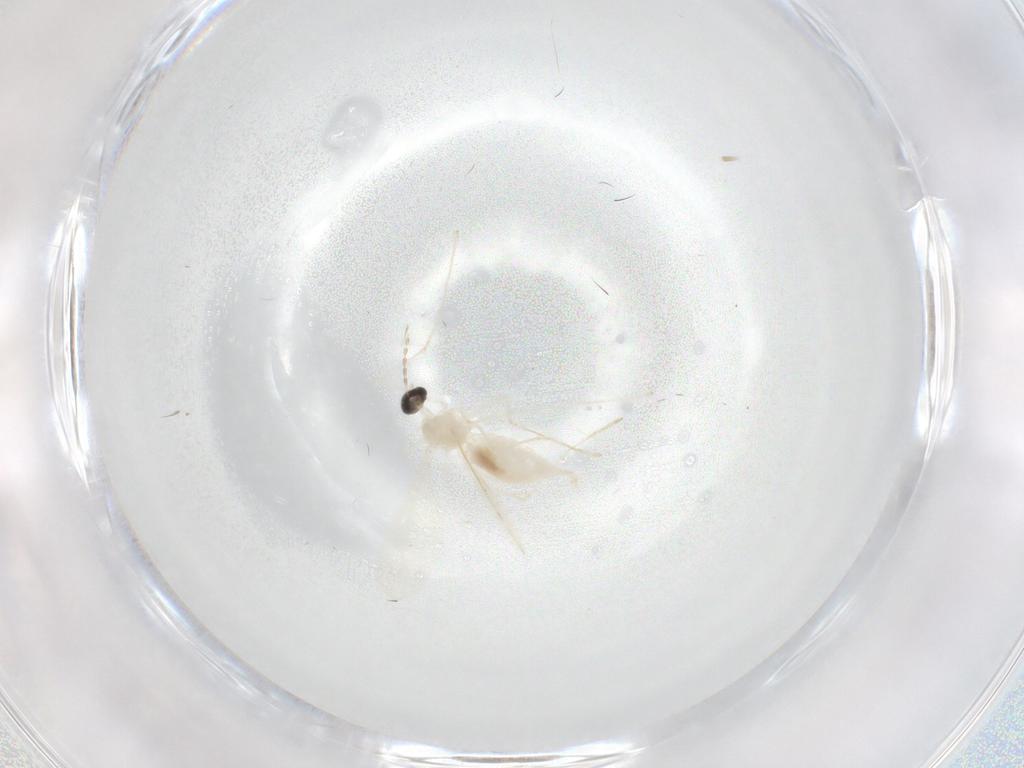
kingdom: Animalia
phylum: Arthropoda
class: Insecta
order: Diptera
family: Cecidomyiidae
